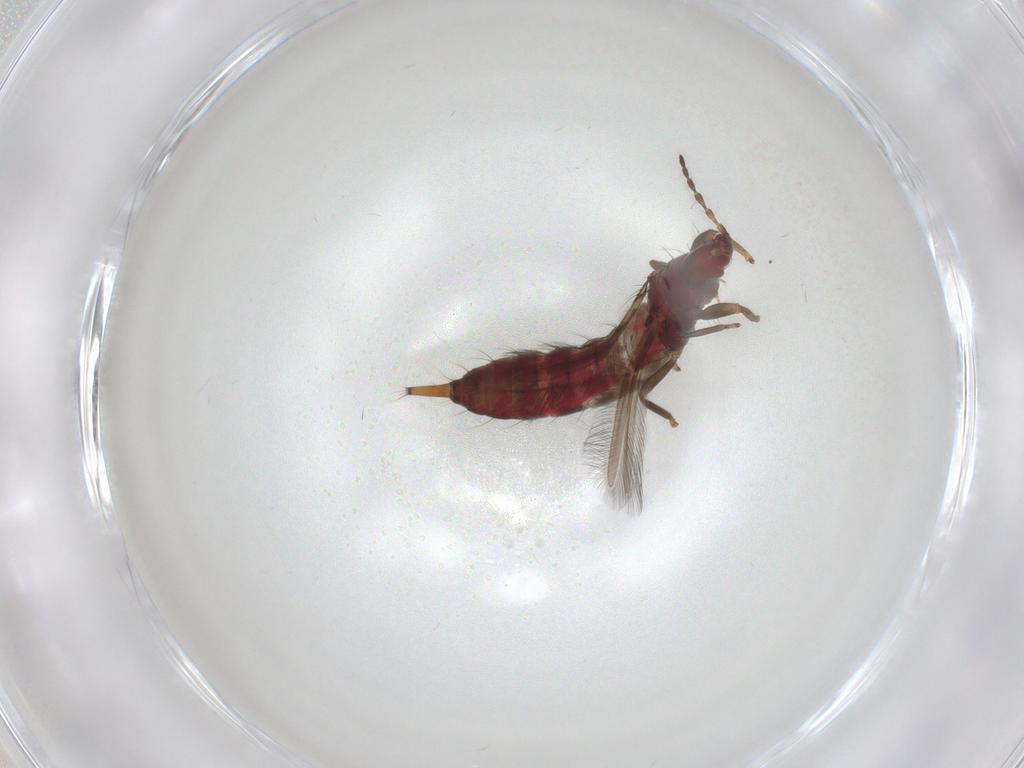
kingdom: Animalia
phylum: Arthropoda
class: Insecta
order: Thysanoptera
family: Phlaeothripidae
